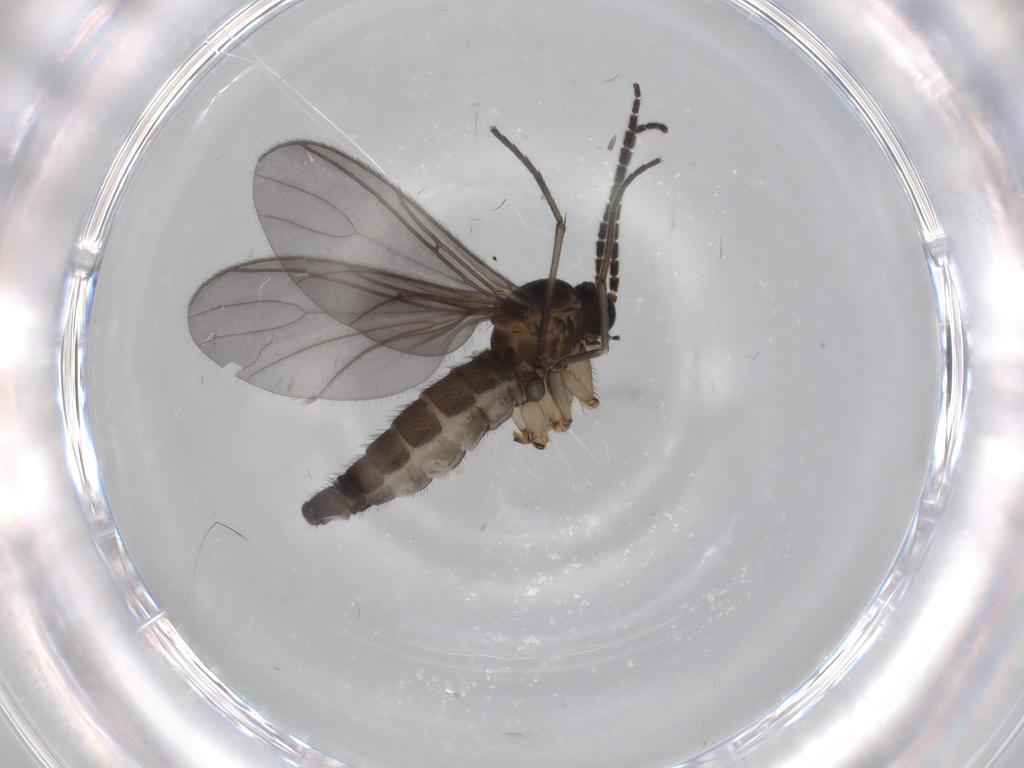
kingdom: Animalia
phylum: Arthropoda
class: Insecta
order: Diptera
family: Sciaridae
